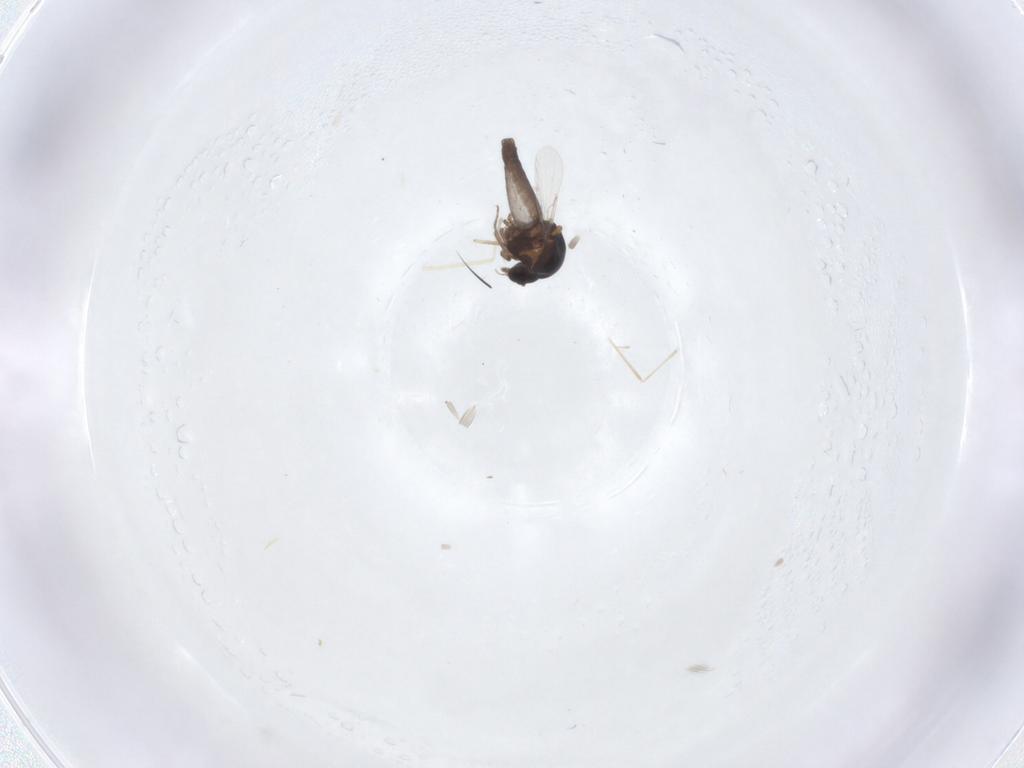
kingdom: Animalia
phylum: Arthropoda
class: Insecta
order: Diptera
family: Ceratopogonidae
